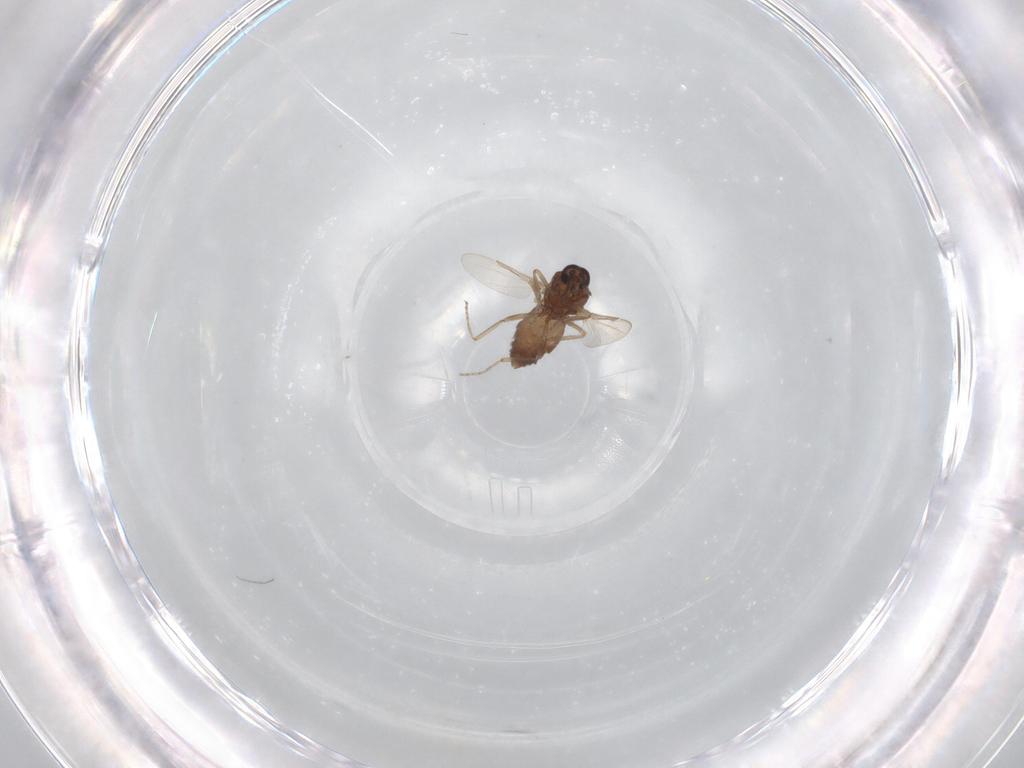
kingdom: Animalia
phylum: Arthropoda
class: Insecta
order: Diptera
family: Ceratopogonidae
